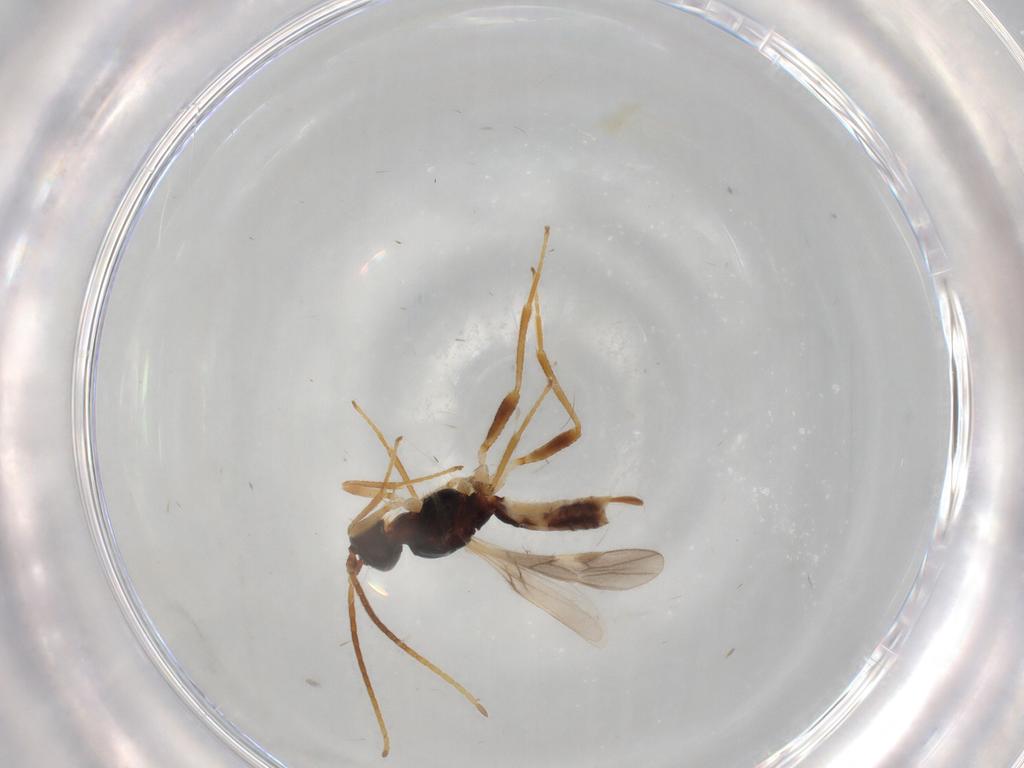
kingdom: Animalia
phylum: Arthropoda
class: Insecta
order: Hymenoptera
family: Braconidae
